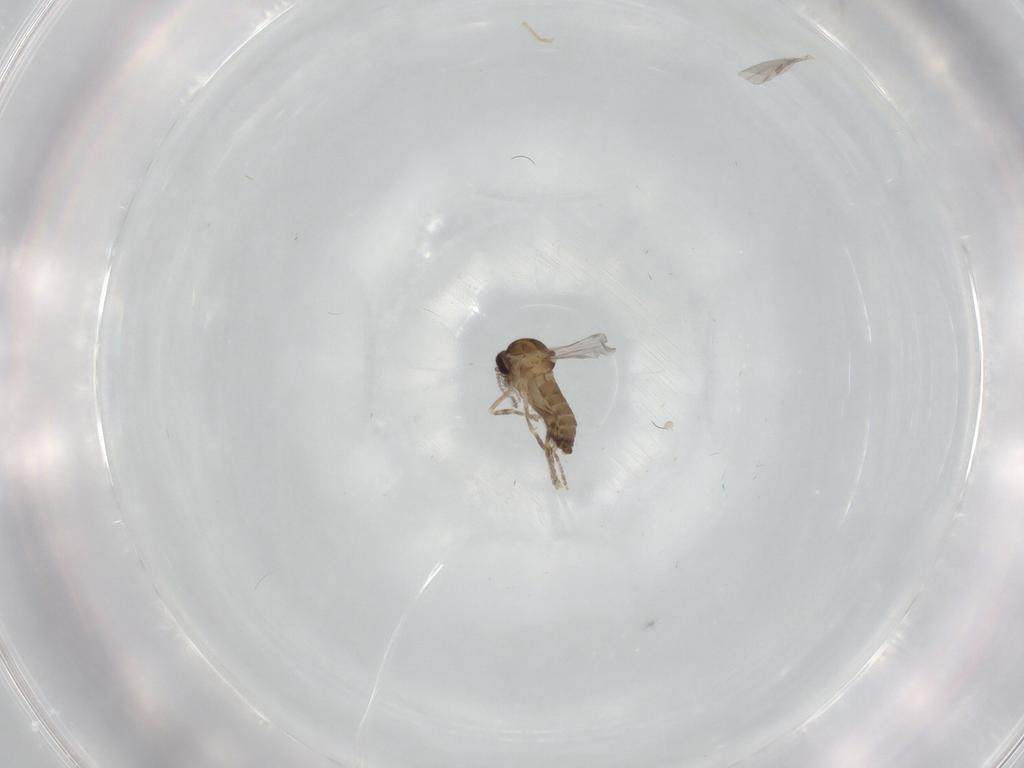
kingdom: Animalia
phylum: Arthropoda
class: Insecta
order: Diptera
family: Ceratopogonidae
